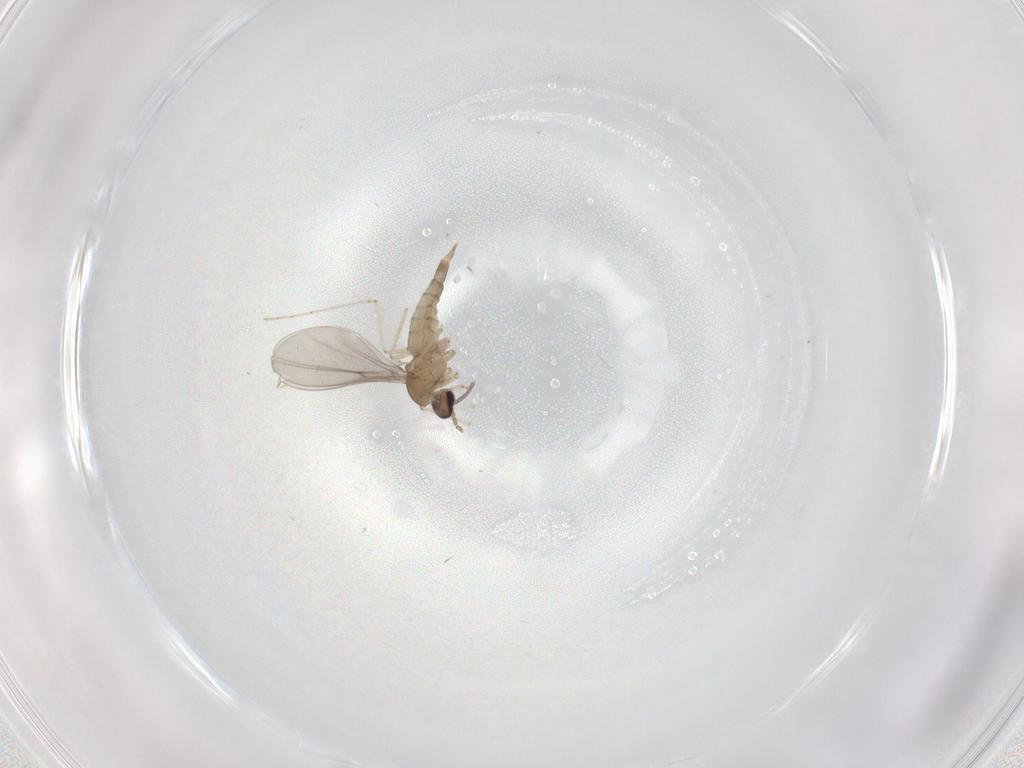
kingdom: Animalia
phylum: Arthropoda
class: Insecta
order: Diptera
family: Cecidomyiidae
